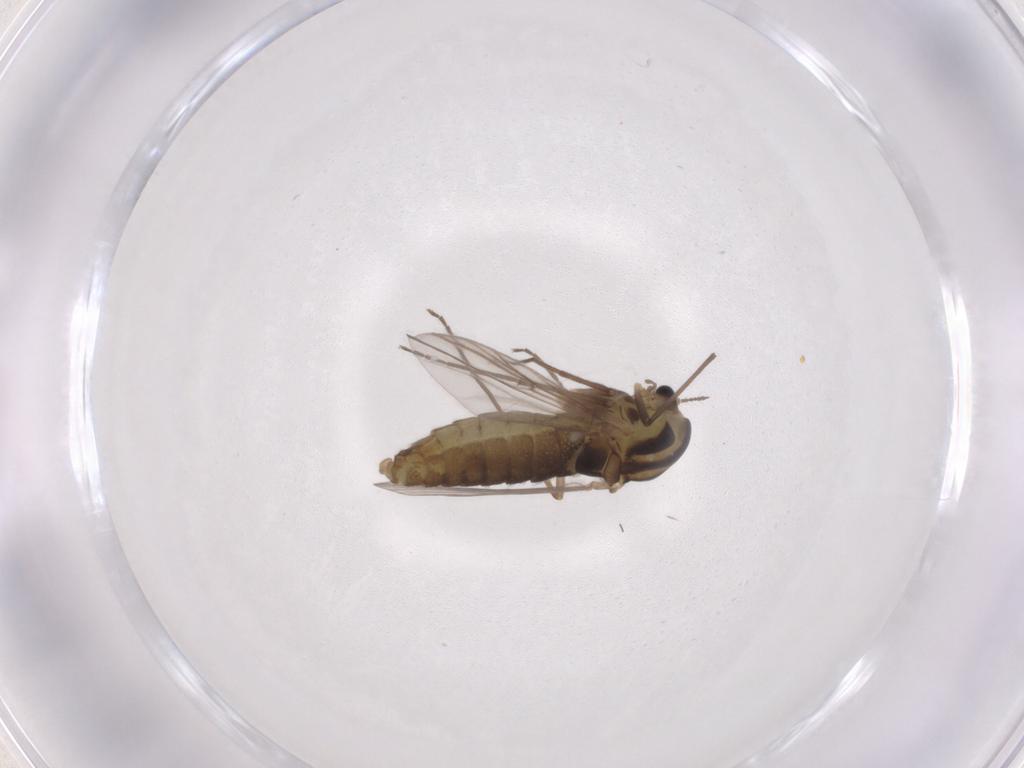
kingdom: Animalia
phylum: Arthropoda
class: Insecta
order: Diptera
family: Chironomidae
